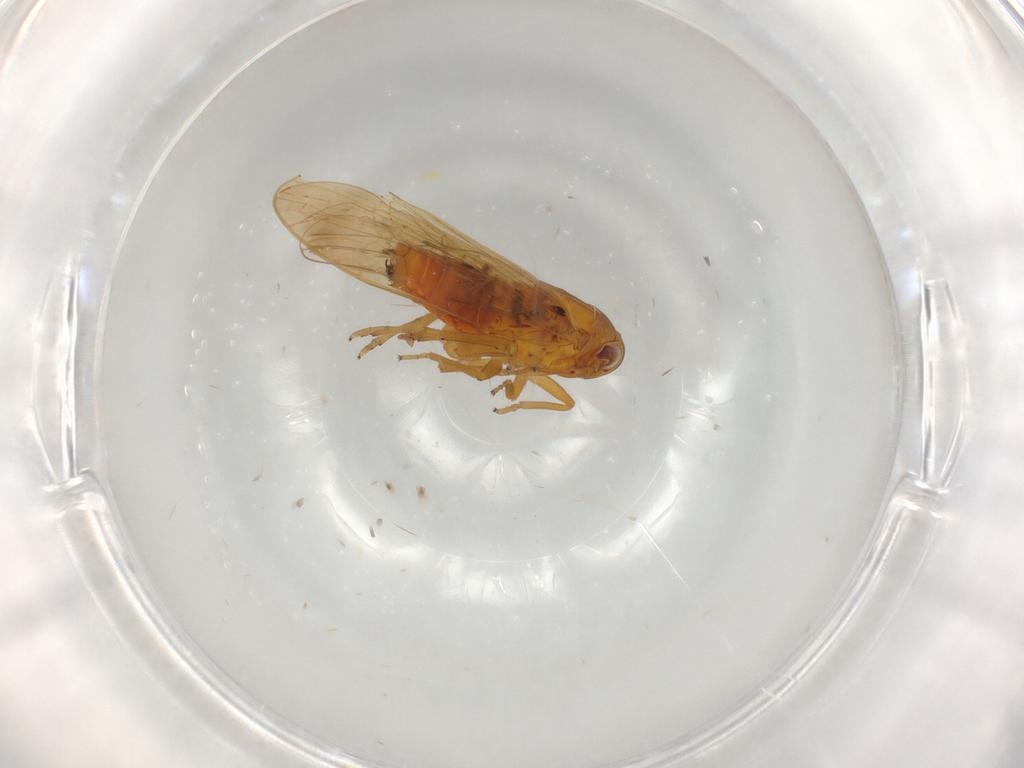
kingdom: Animalia
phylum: Arthropoda
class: Insecta
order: Hemiptera
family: Delphacidae
